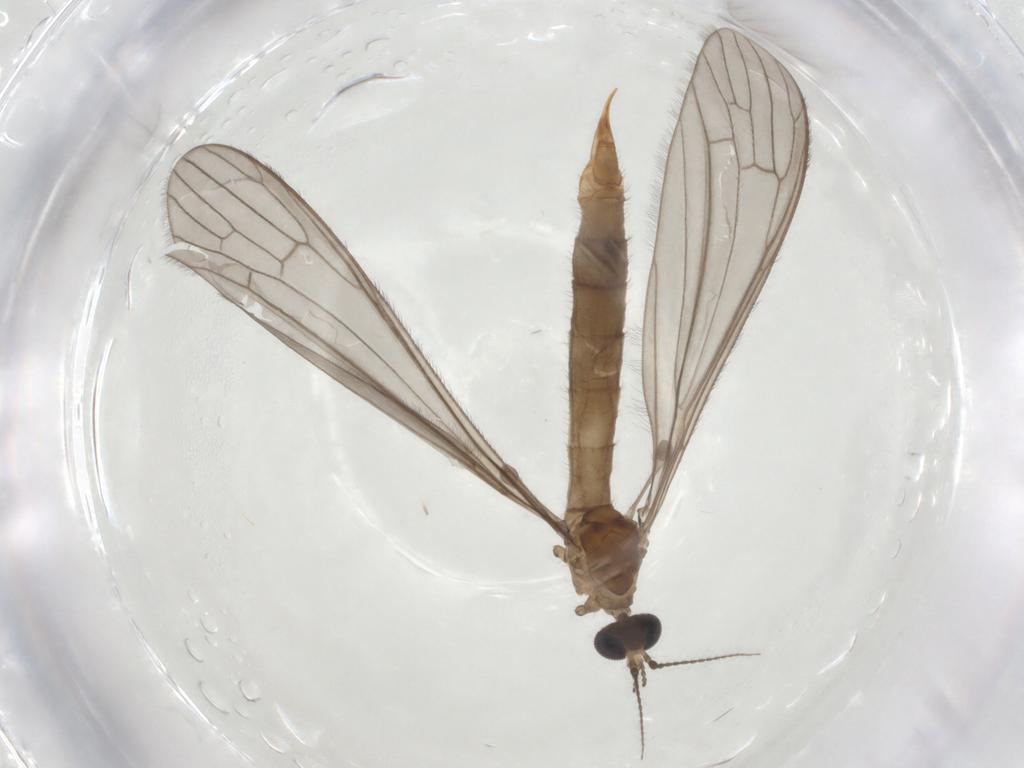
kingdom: Animalia
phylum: Arthropoda
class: Insecta
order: Diptera
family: Limoniidae
